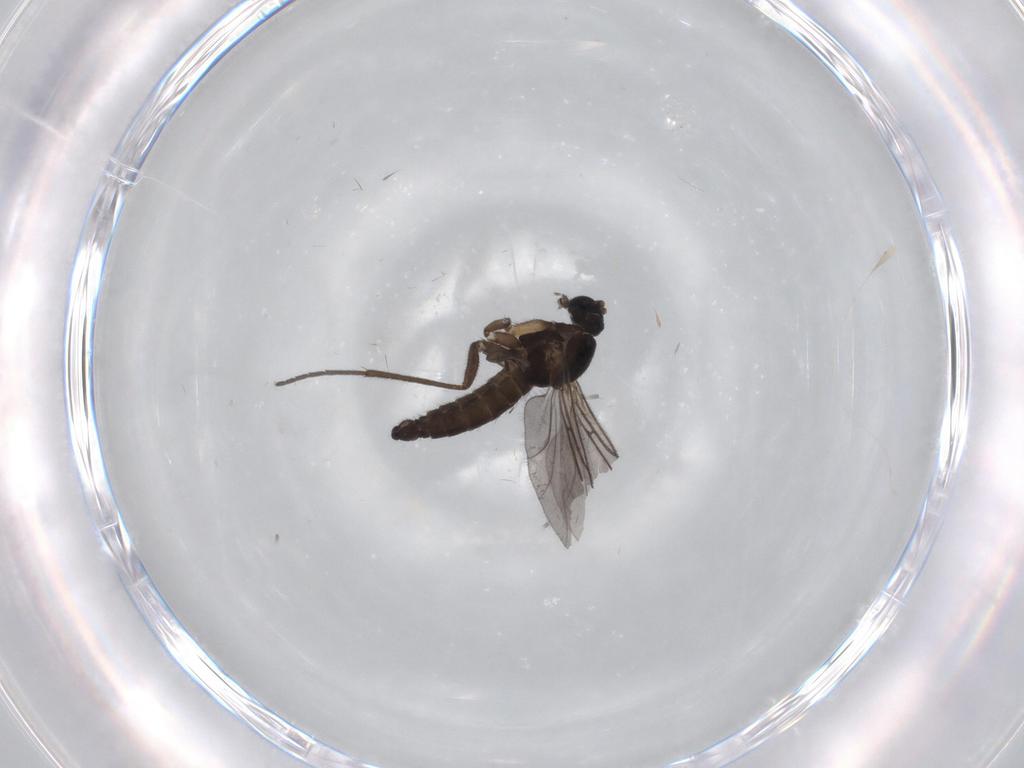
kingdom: Animalia
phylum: Arthropoda
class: Insecta
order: Diptera
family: Sciaridae
